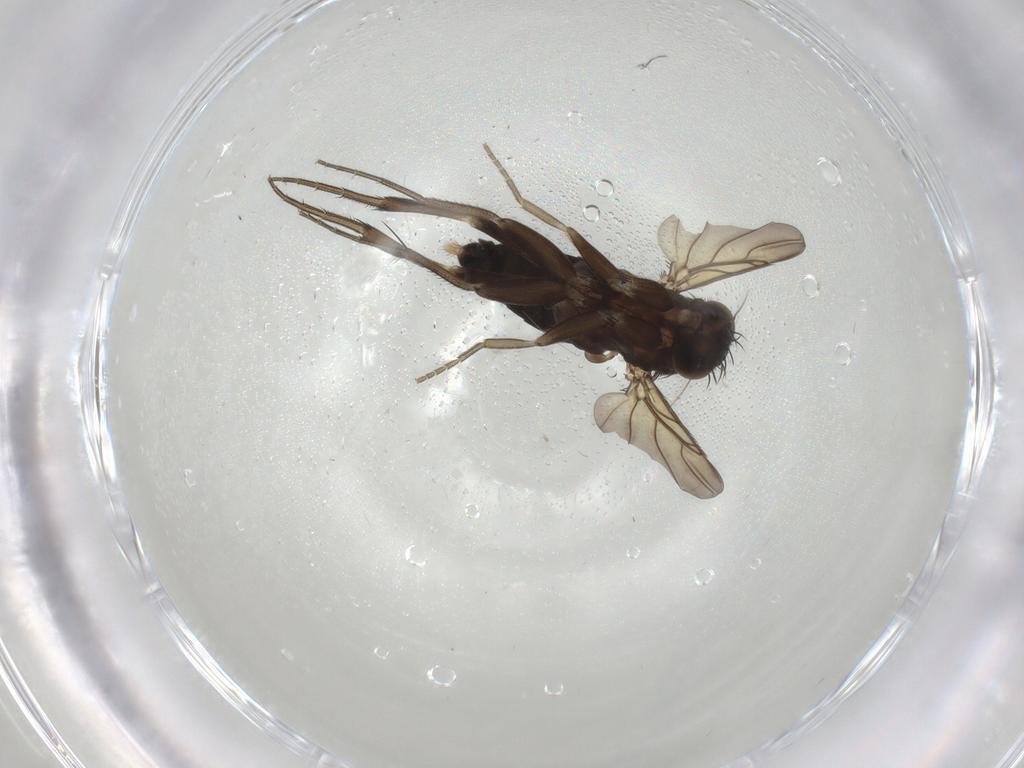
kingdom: Animalia
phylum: Arthropoda
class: Insecta
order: Diptera
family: Phoridae
